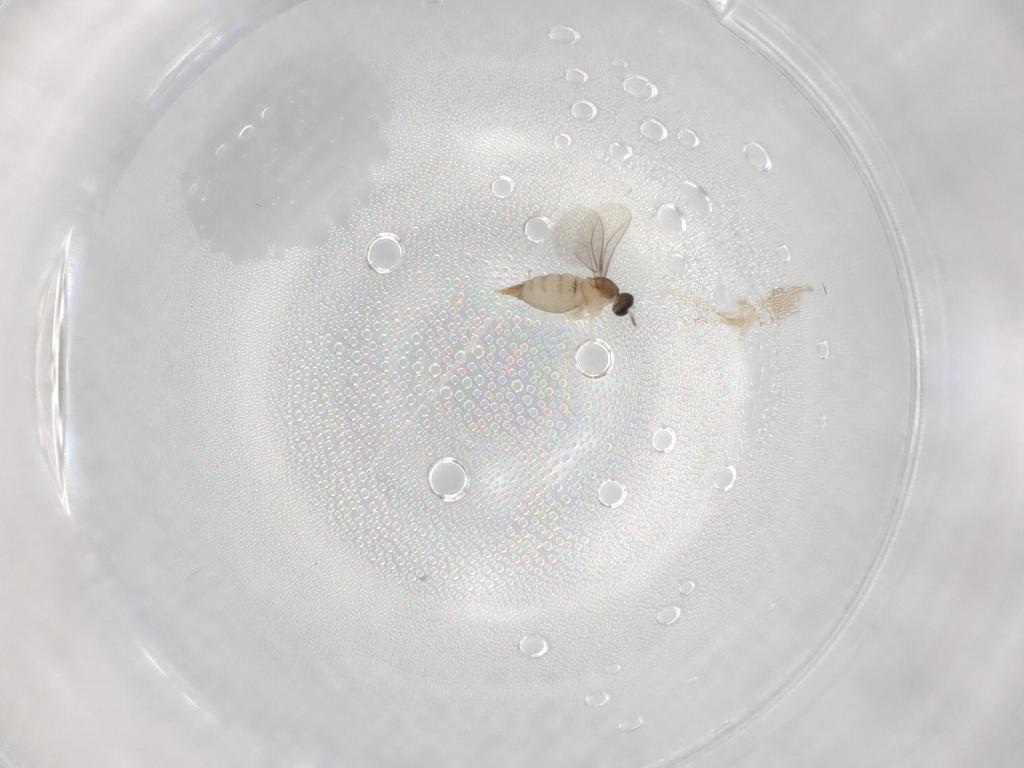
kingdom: Animalia
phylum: Arthropoda
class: Insecta
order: Diptera
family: Cecidomyiidae
